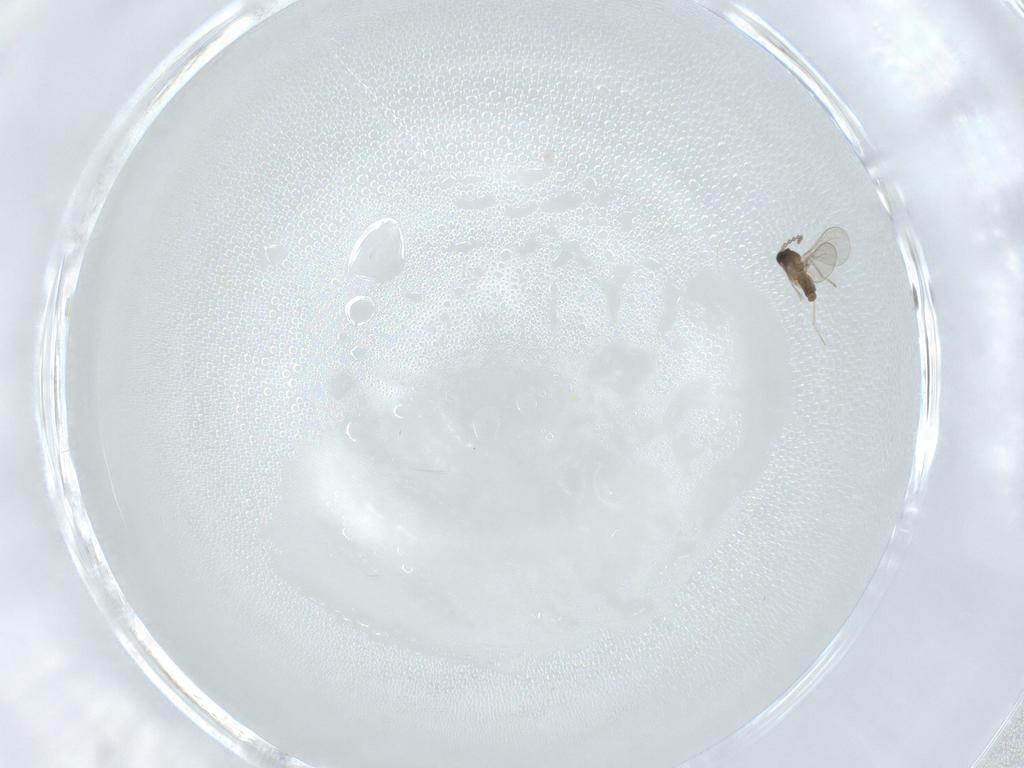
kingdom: Animalia
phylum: Arthropoda
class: Insecta
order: Diptera
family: Cecidomyiidae
